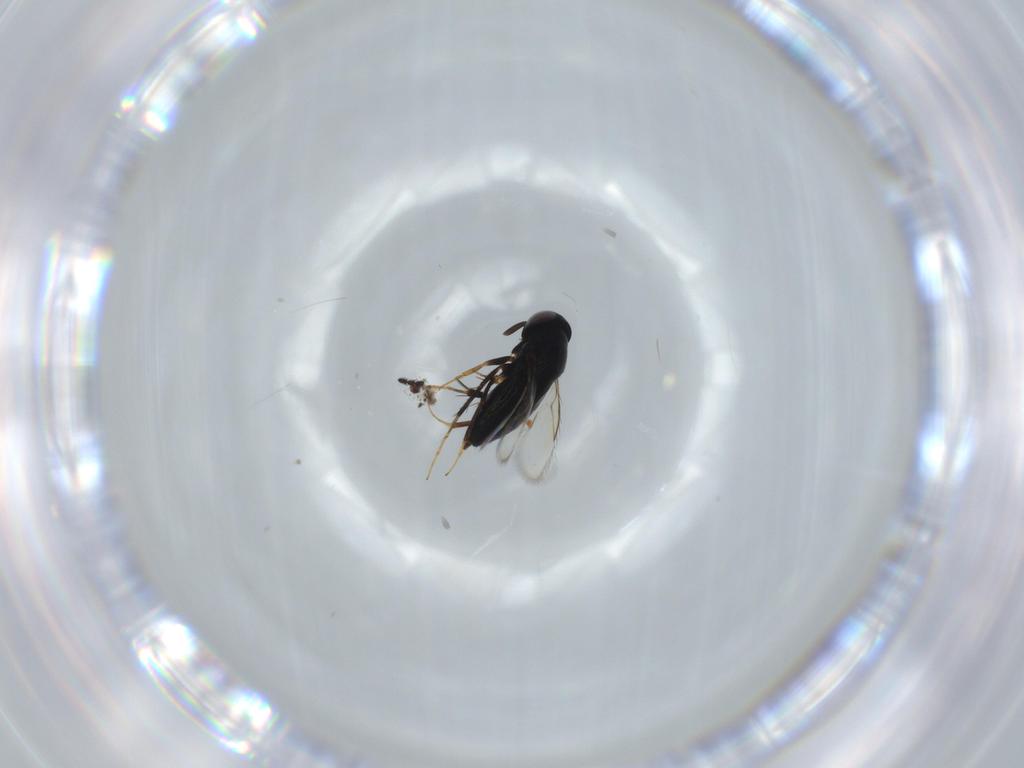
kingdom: Animalia
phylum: Arthropoda
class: Insecta
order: Hymenoptera
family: Signiphoridae
